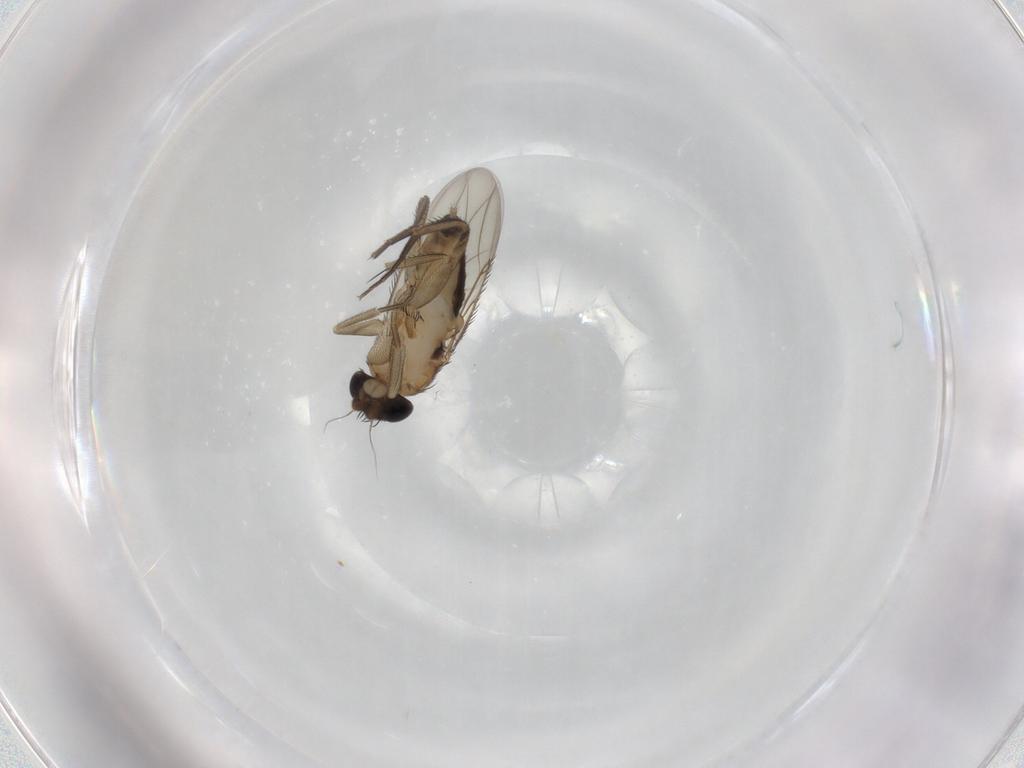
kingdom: Animalia
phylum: Arthropoda
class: Insecta
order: Diptera
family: Phoridae
